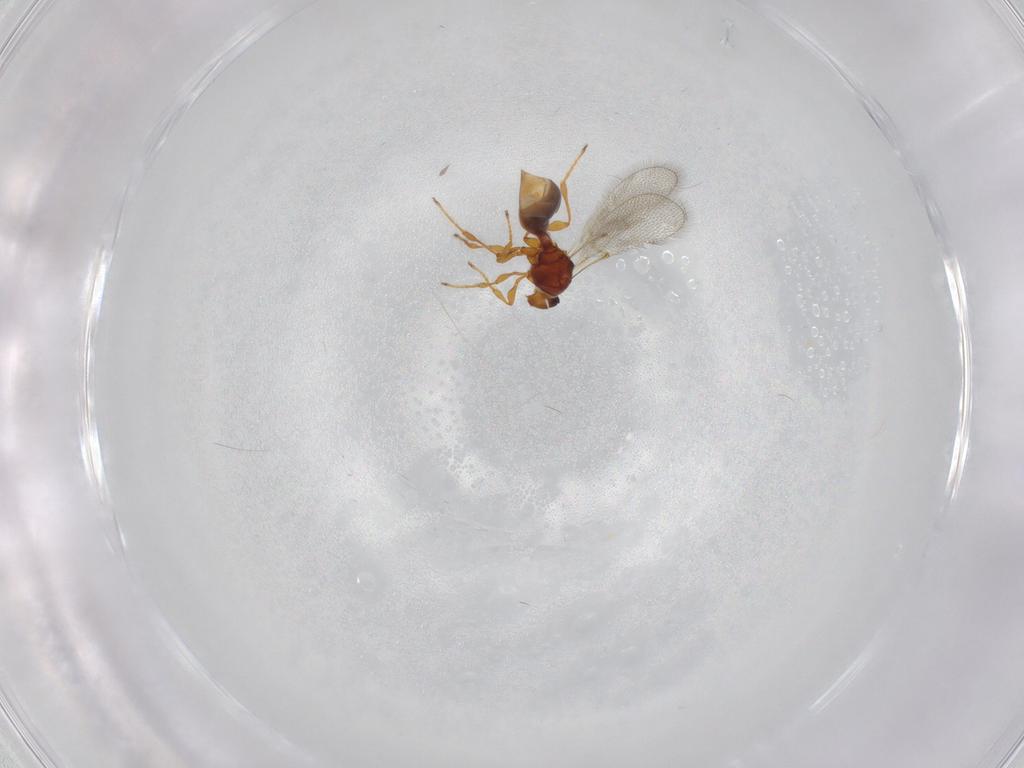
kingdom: Animalia
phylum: Arthropoda
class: Insecta
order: Hymenoptera
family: Diapriidae
